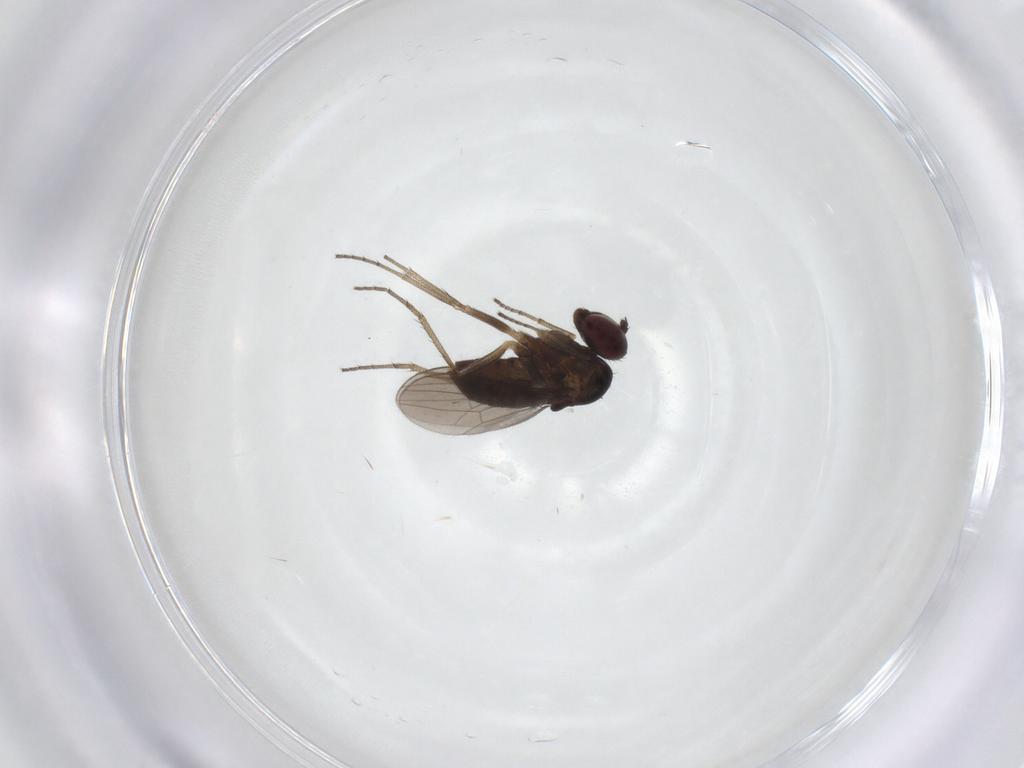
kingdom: Animalia
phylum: Arthropoda
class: Insecta
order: Diptera
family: Dolichopodidae
